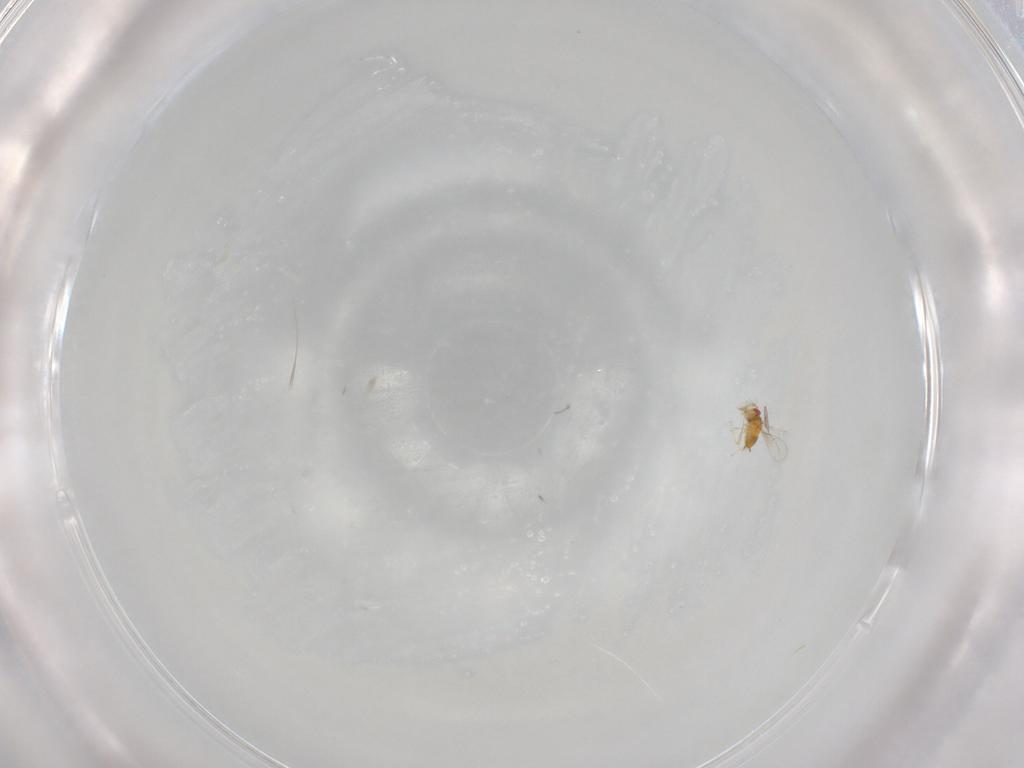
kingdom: Animalia
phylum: Arthropoda
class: Insecta
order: Hymenoptera
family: Trichogrammatidae
